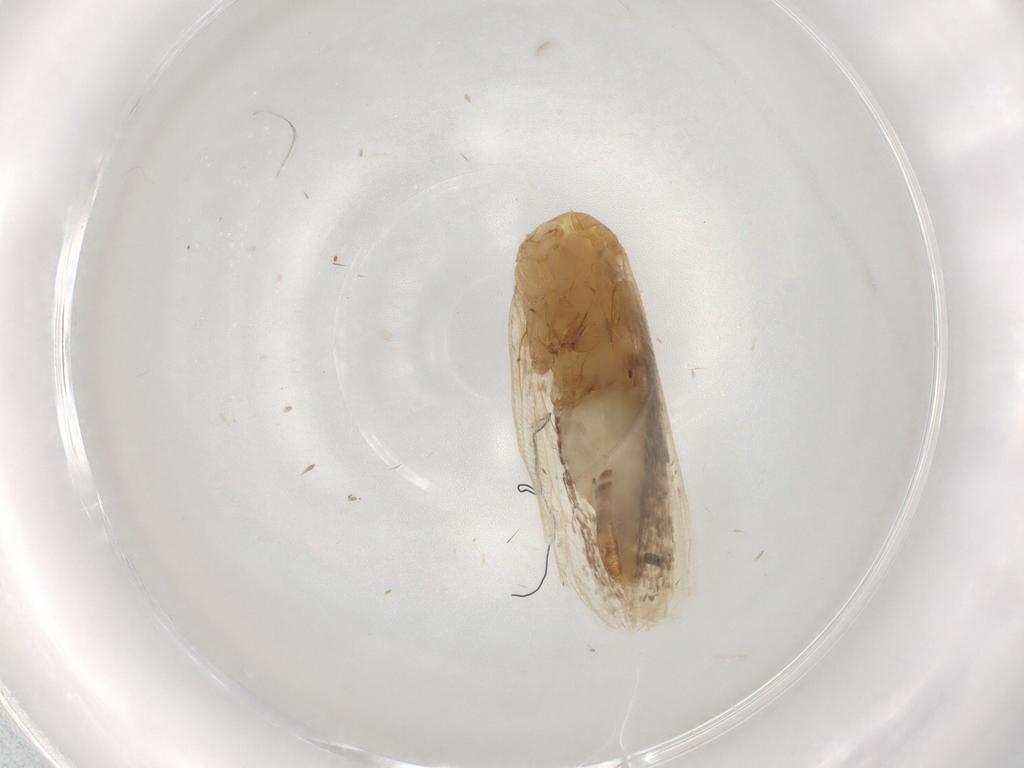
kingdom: Animalia
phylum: Arthropoda
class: Insecta
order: Lepidoptera
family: Tortricidae
